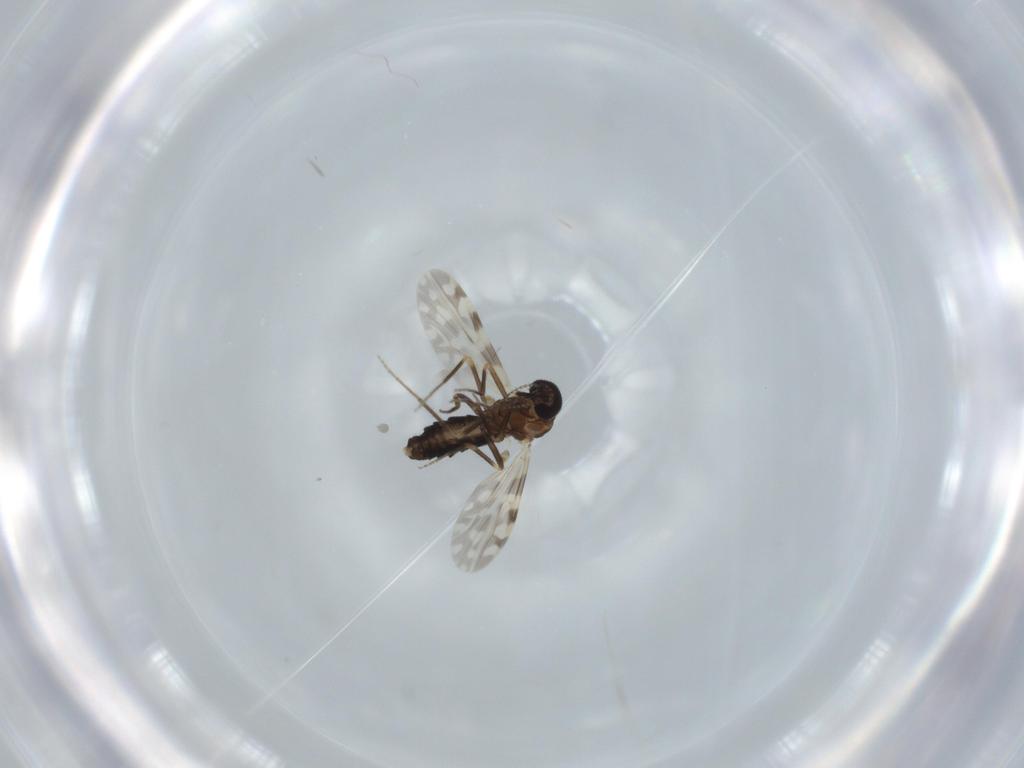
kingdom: Animalia
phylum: Arthropoda
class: Insecta
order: Diptera
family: Ceratopogonidae
